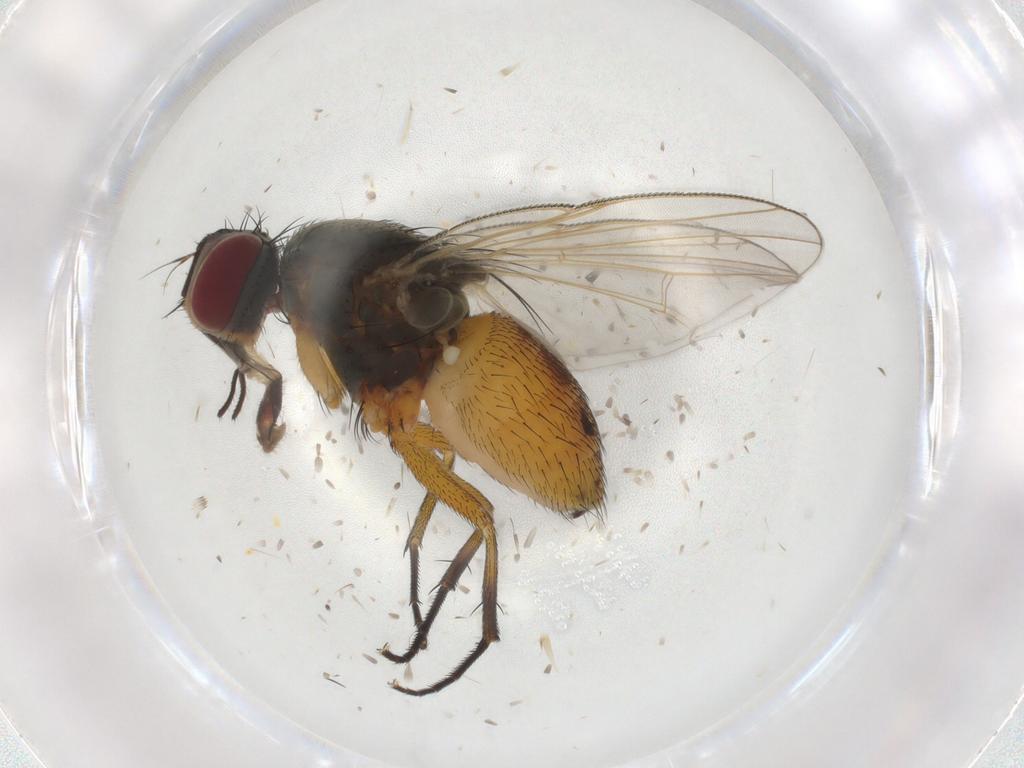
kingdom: Animalia
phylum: Arthropoda
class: Insecta
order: Diptera
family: Muscidae
